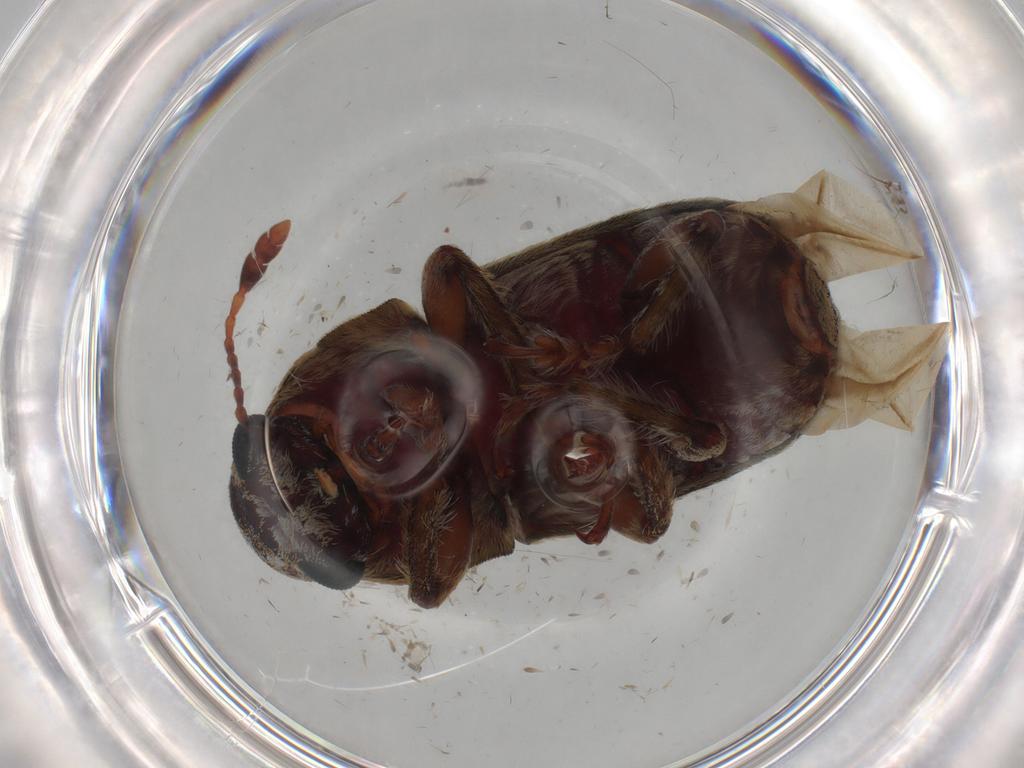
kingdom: Animalia
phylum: Arthropoda
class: Insecta
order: Coleoptera
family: Anthribidae
